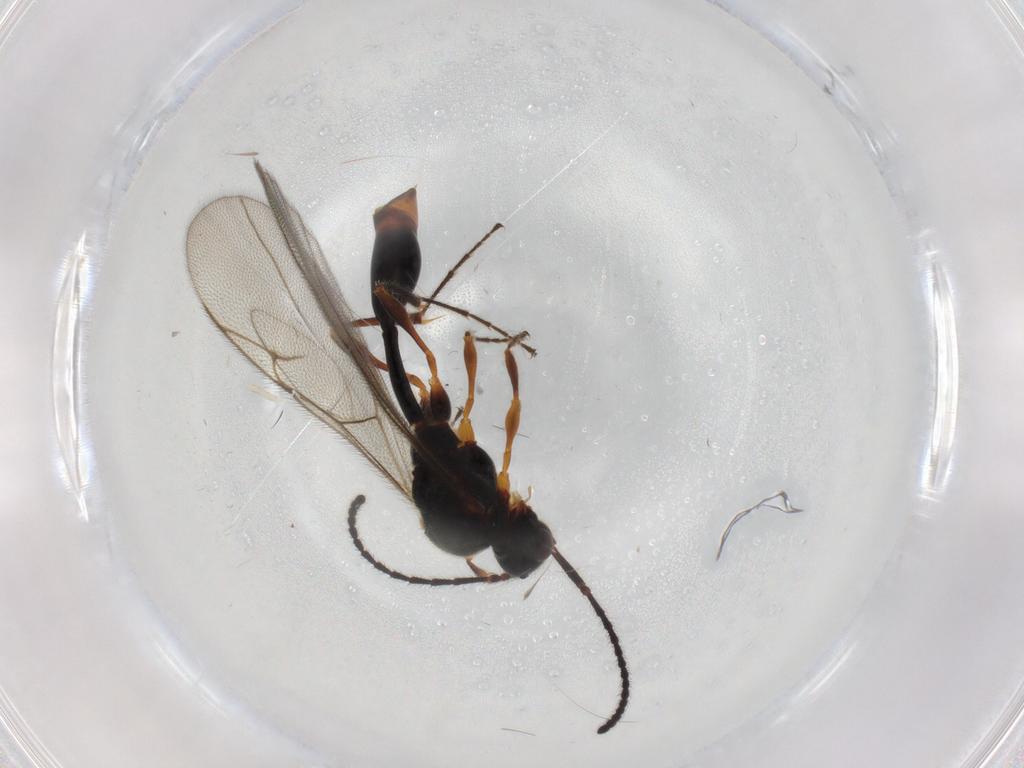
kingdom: Animalia
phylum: Arthropoda
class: Insecta
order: Hymenoptera
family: Diapriidae
